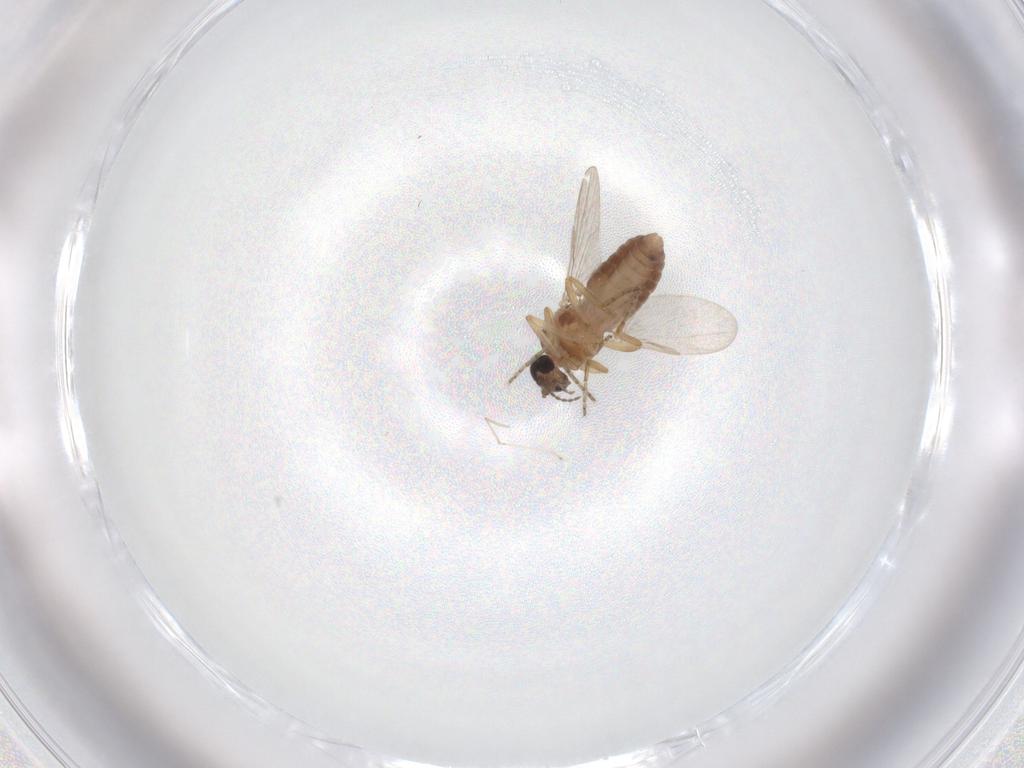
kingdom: Animalia
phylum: Arthropoda
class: Insecta
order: Diptera
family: Ceratopogonidae
